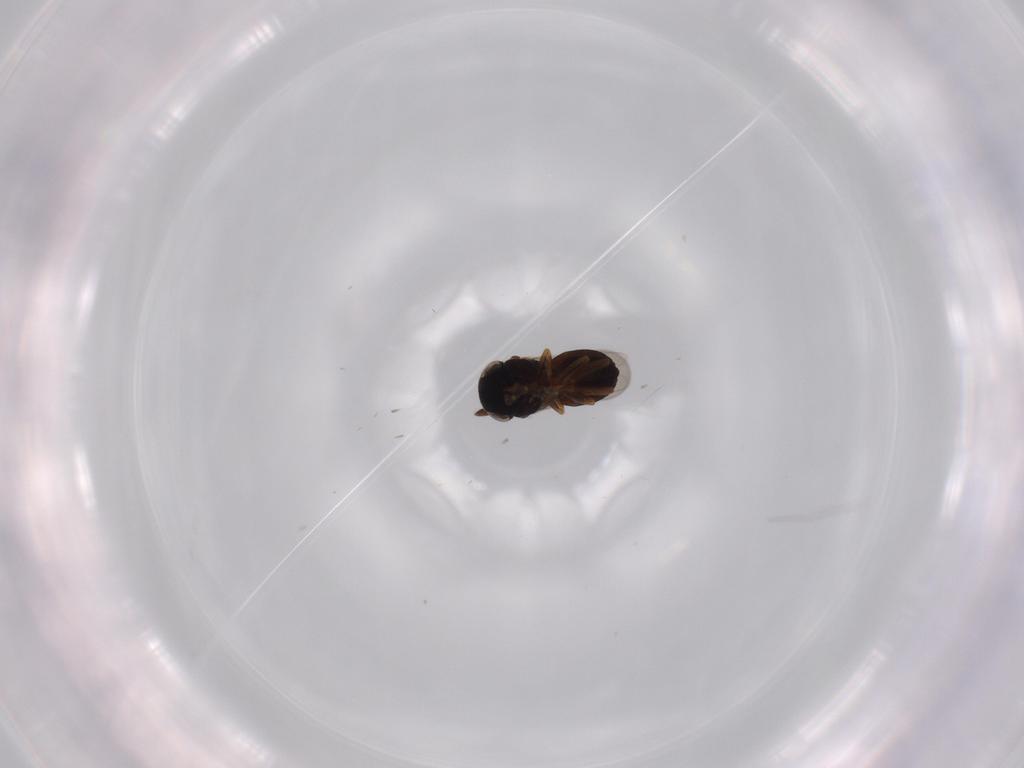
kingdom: Animalia
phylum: Arthropoda
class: Insecta
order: Hymenoptera
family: Scelionidae
